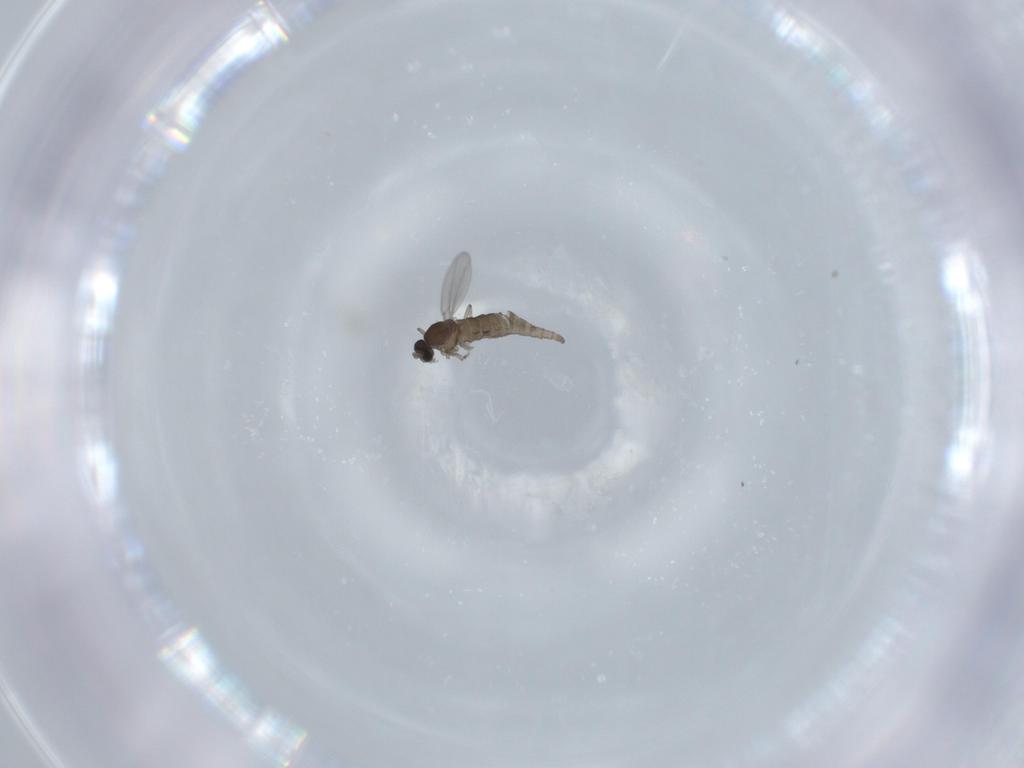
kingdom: Animalia
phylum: Arthropoda
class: Insecta
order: Diptera
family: Cecidomyiidae
